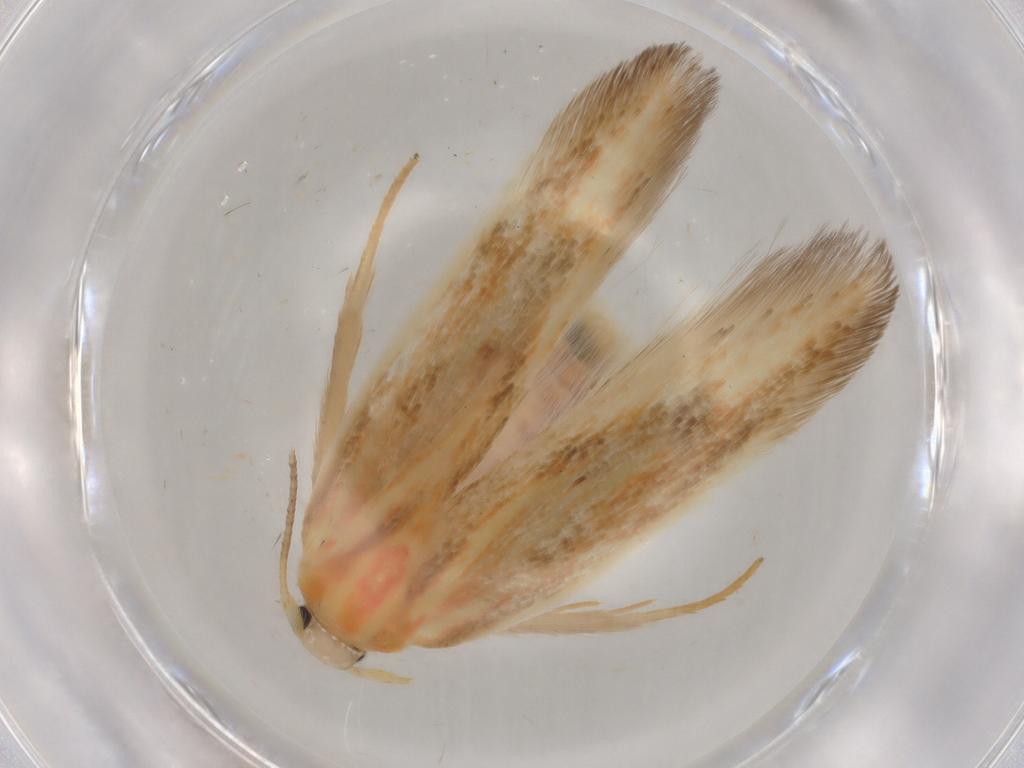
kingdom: Animalia
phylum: Arthropoda
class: Insecta
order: Lepidoptera
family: Geometridae
